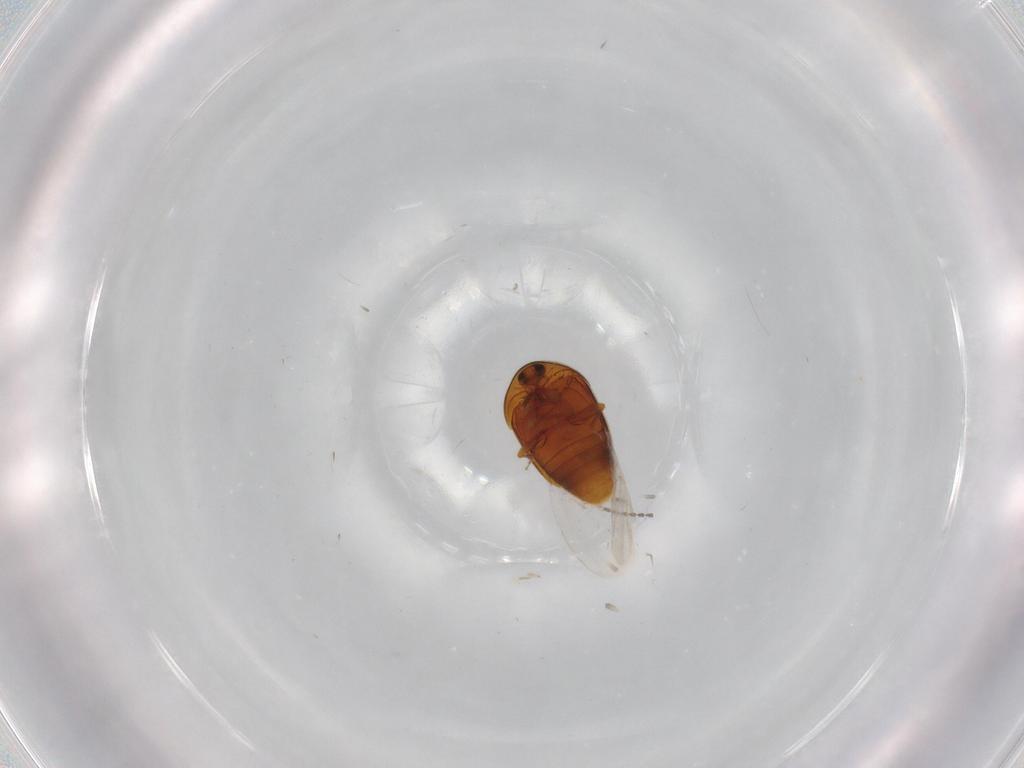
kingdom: Animalia
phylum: Arthropoda
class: Insecta
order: Coleoptera
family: Corylophidae
